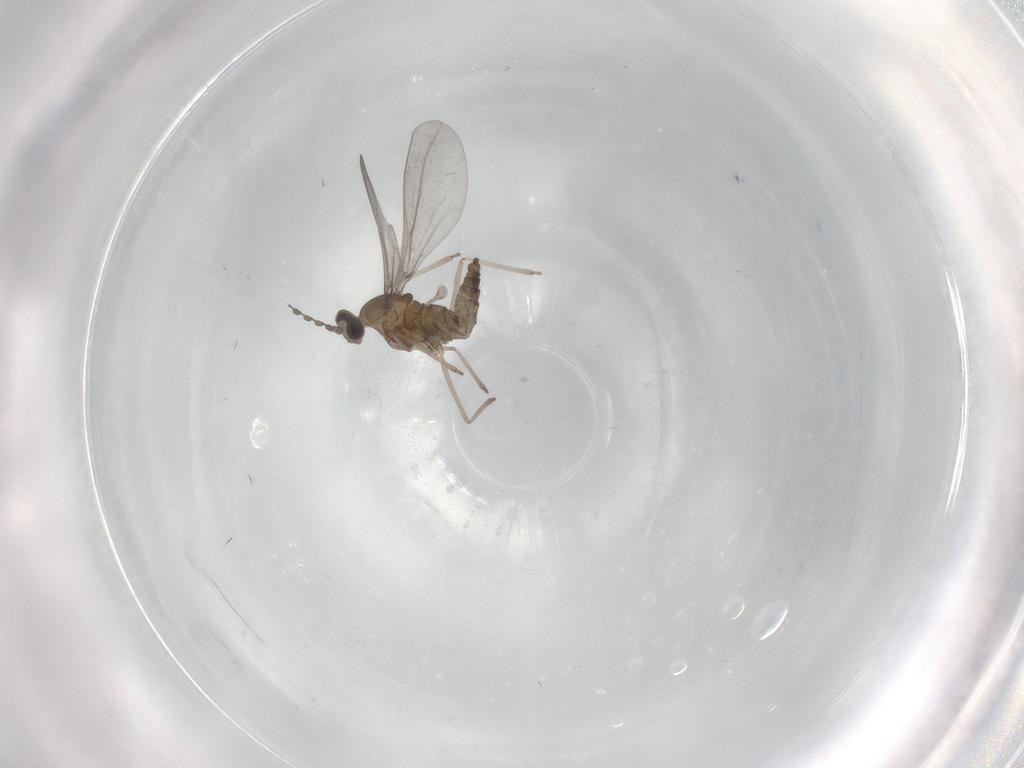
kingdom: Animalia
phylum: Arthropoda
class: Insecta
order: Diptera
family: Cecidomyiidae
